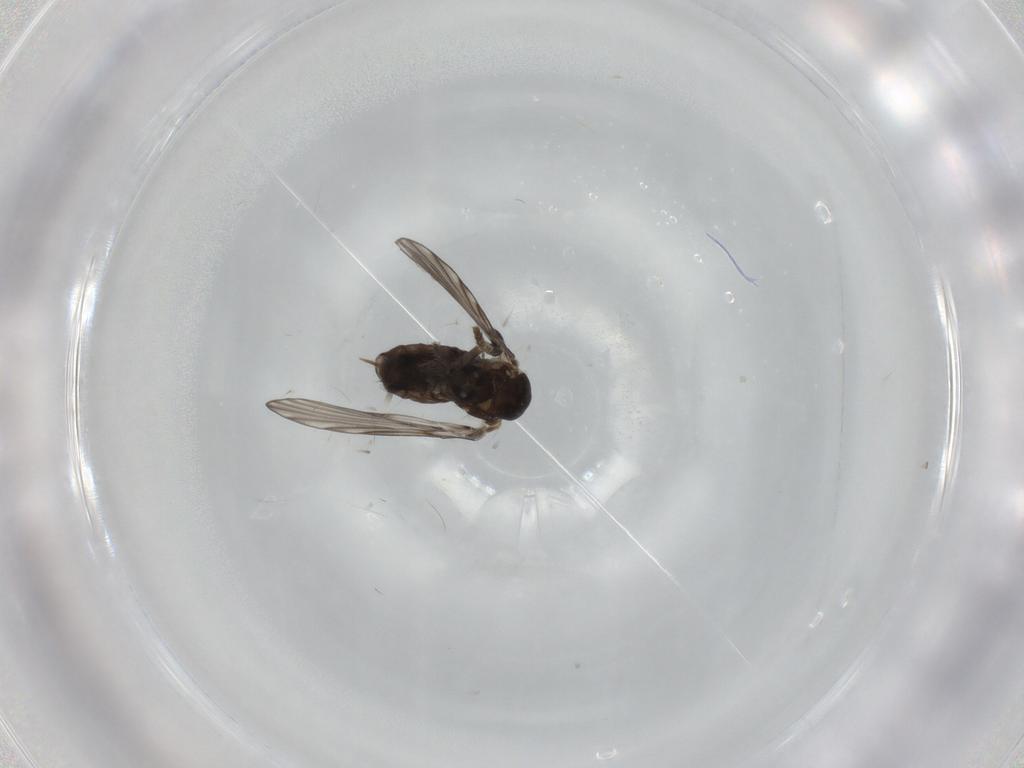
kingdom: Animalia
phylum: Arthropoda
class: Insecta
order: Diptera
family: Psychodidae
